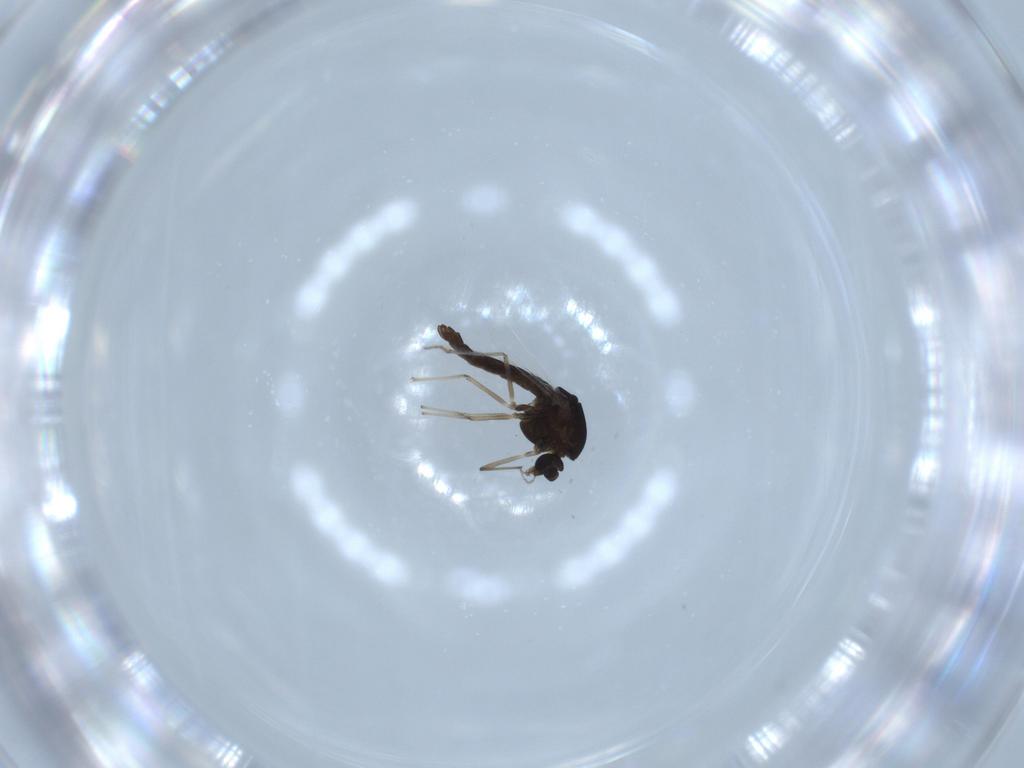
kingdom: Animalia
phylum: Arthropoda
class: Insecta
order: Diptera
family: Chironomidae
